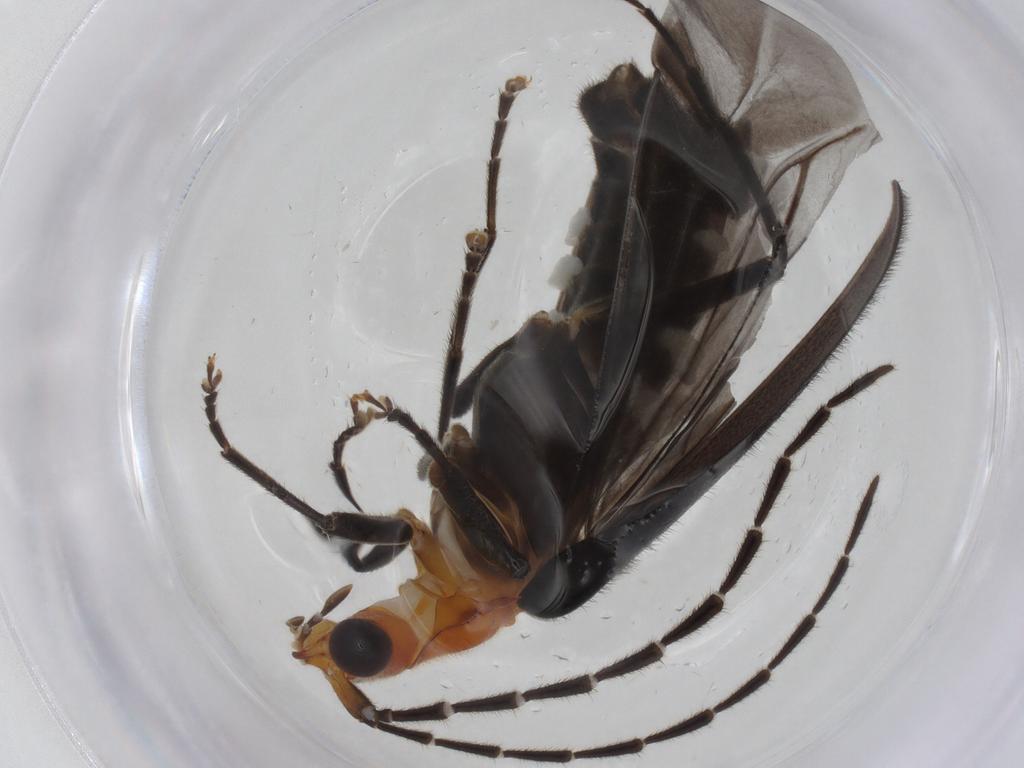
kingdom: Animalia
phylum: Arthropoda
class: Insecta
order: Coleoptera
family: Cantharidae
